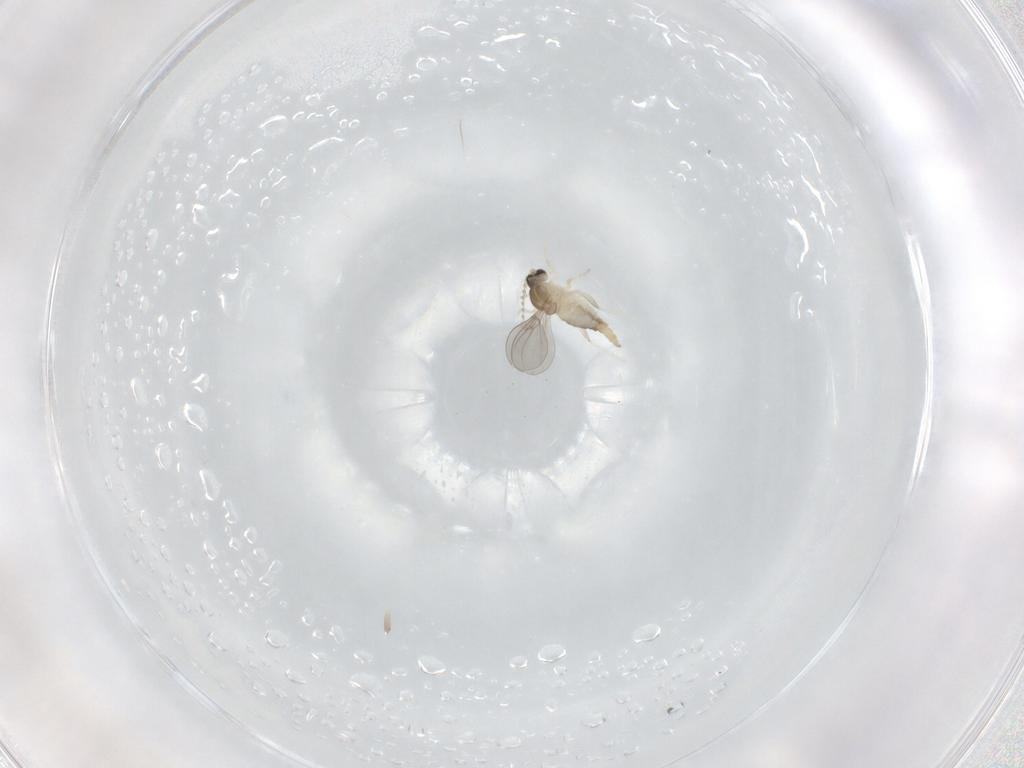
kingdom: Animalia
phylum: Arthropoda
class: Insecta
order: Diptera
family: Cecidomyiidae
